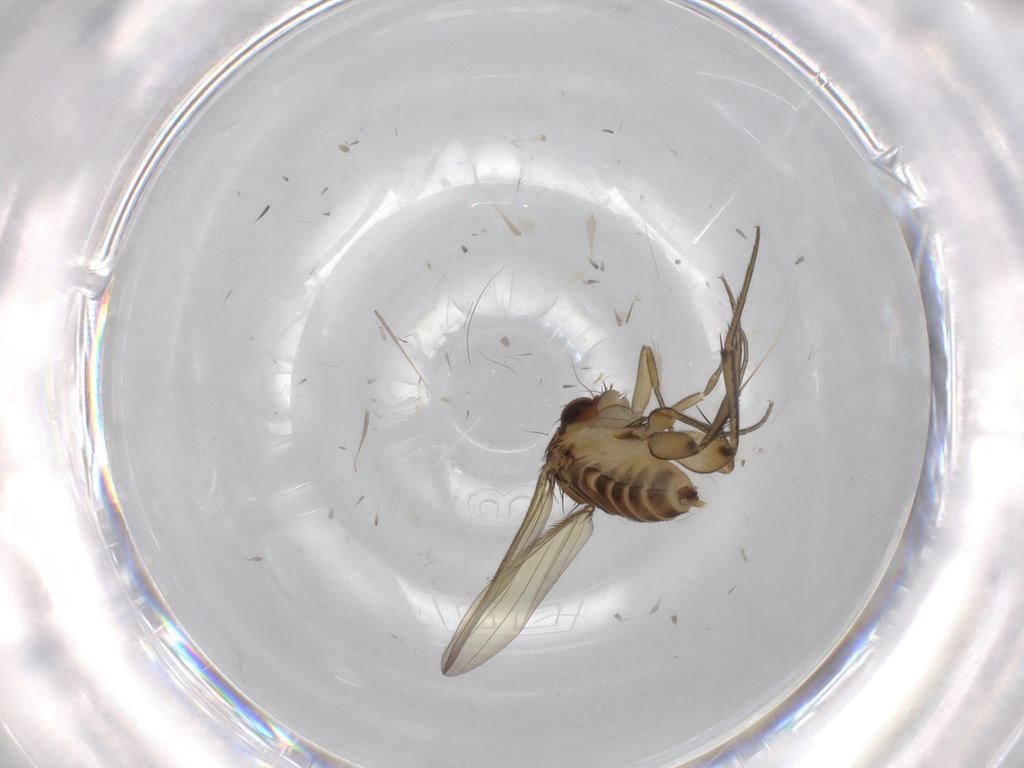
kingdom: Animalia
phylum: Arthropoda
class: Insecta
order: Diptera
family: Phoridae
